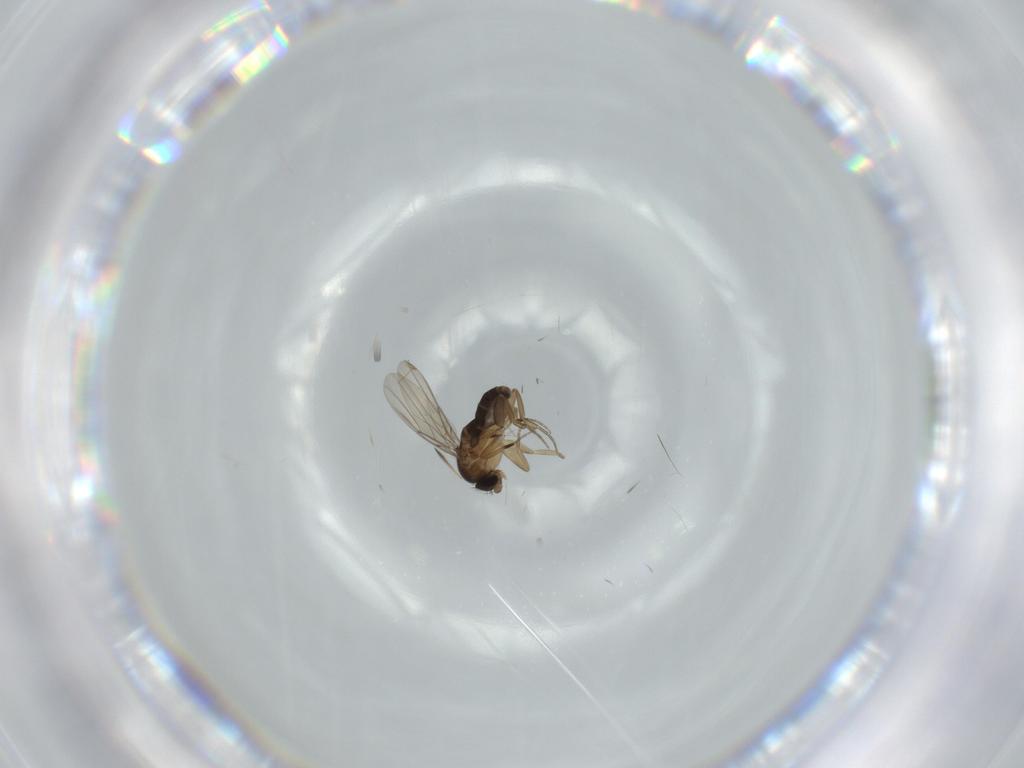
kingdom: Animalia
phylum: Arthropoda
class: Insecta
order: Diptera
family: Phoridae
